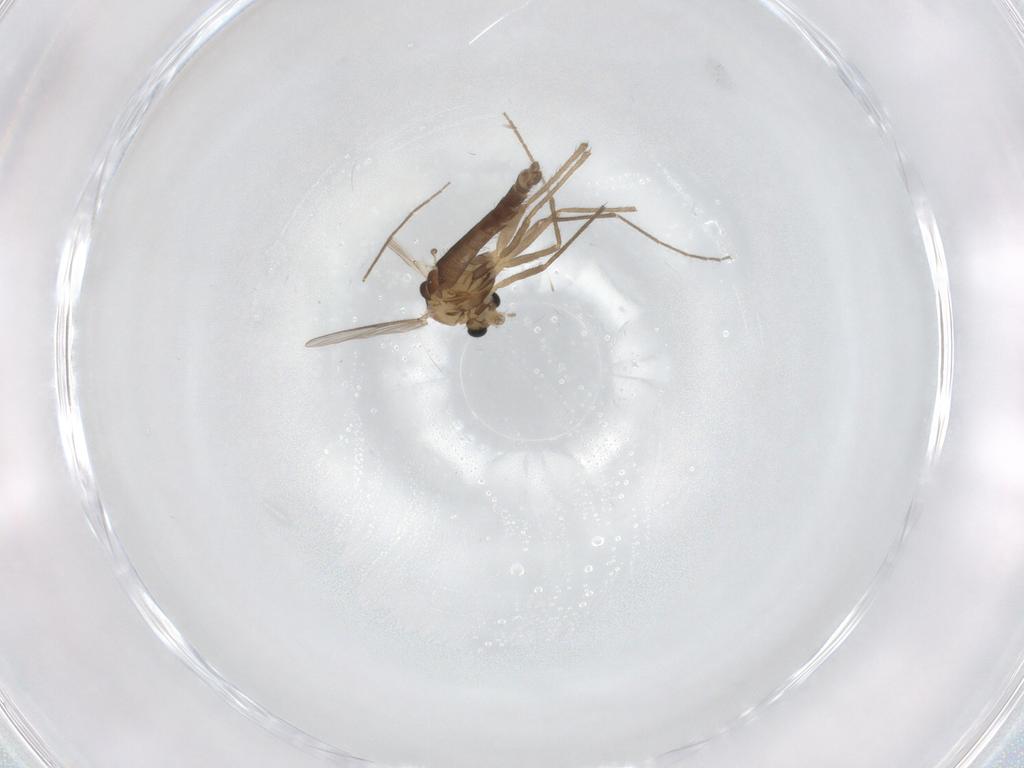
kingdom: Animalia
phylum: Arthropoda
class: Insecta
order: Diptera
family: Chironomidae
